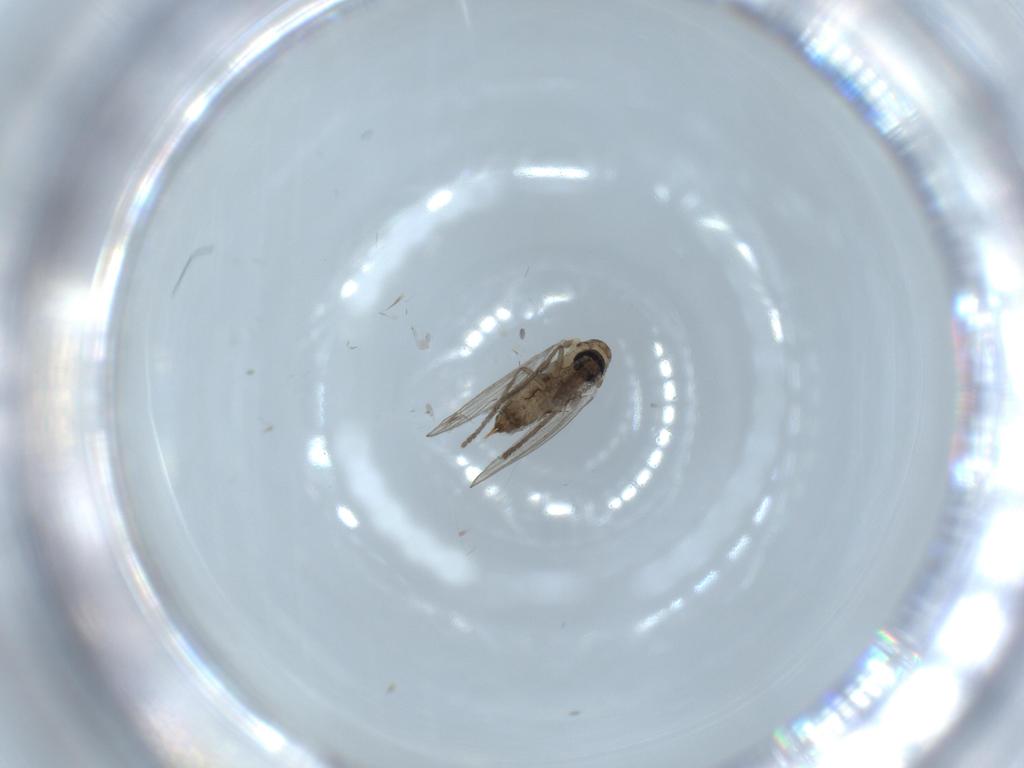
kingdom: Animalia
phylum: Arthropoda
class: Insecta
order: Diptera
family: Psychodidae
